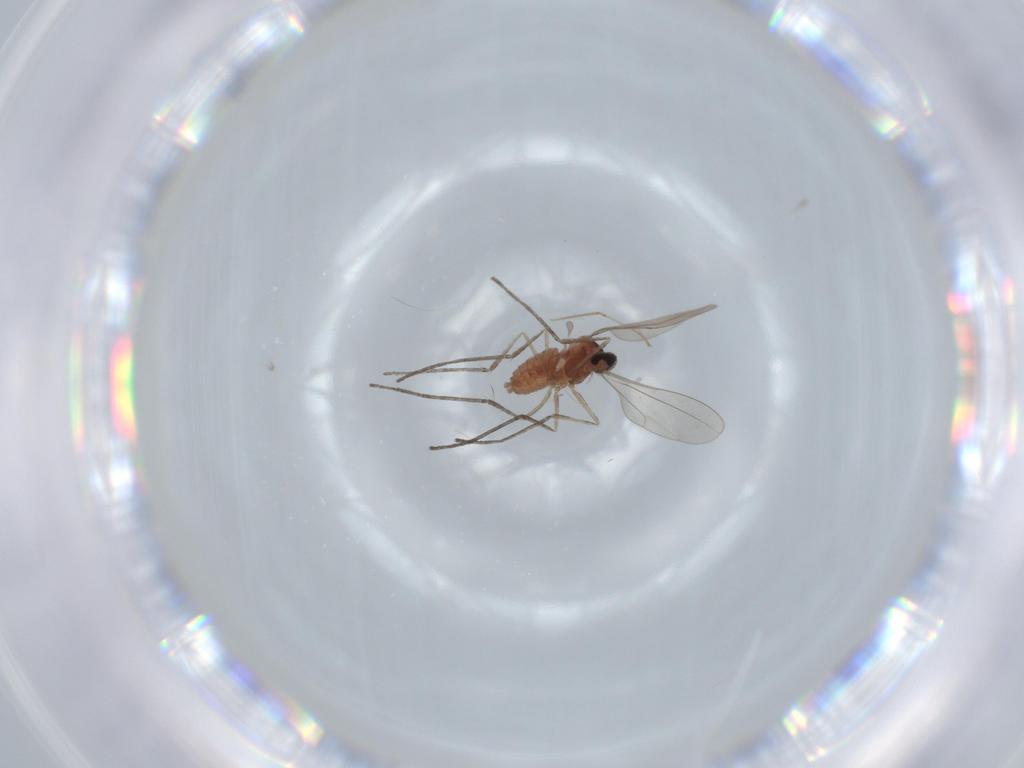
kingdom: Animalia
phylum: Arthropoda
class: Insecta
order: Diptera
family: Cecidomyiidae
